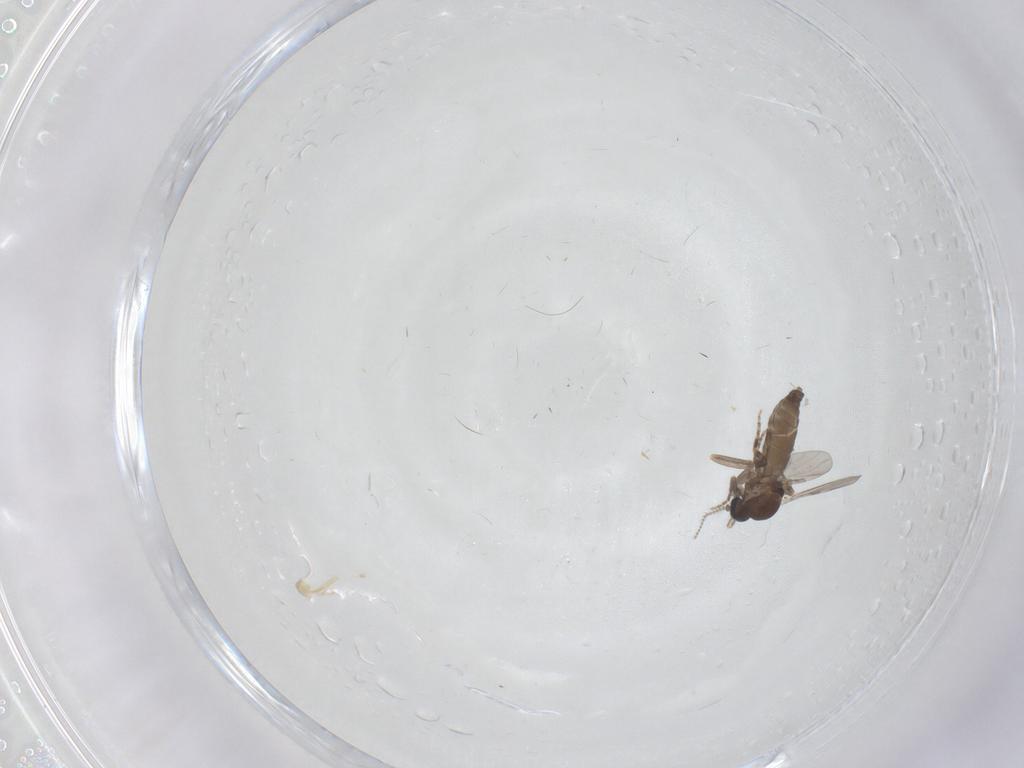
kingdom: Animalia
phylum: Arthropoda
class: Insecta
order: Diptera
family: Ceratopogonidae
